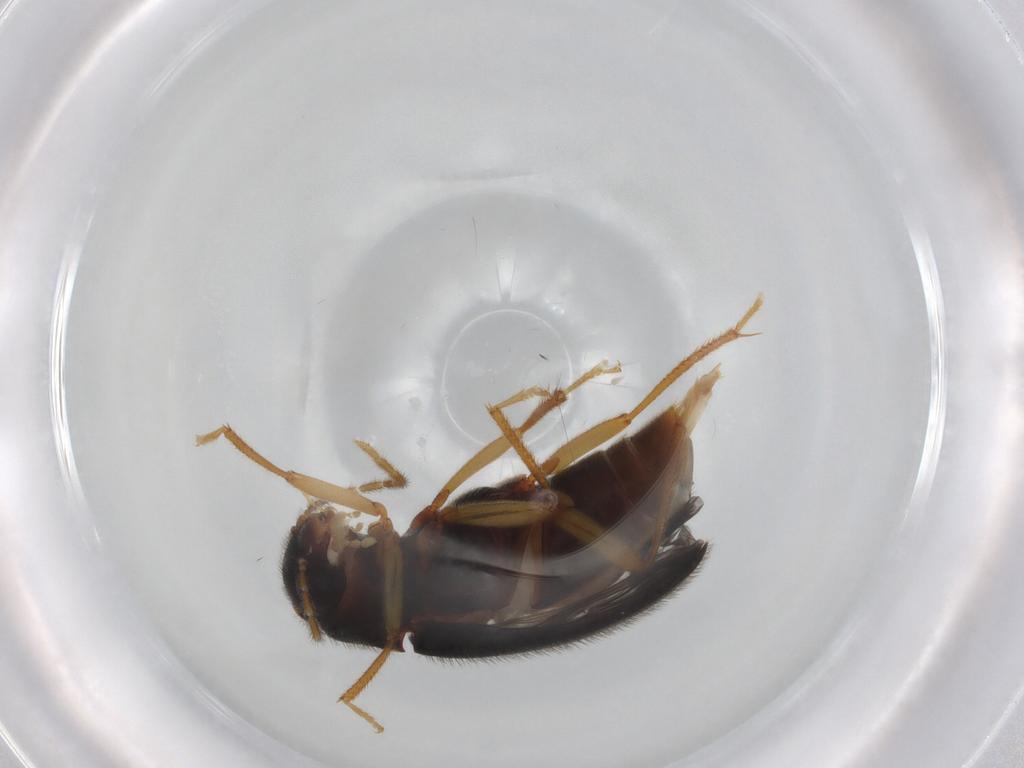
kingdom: Animalia
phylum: Arthropoda
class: Insecta
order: Coleoptera
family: Ptilodactylidae
